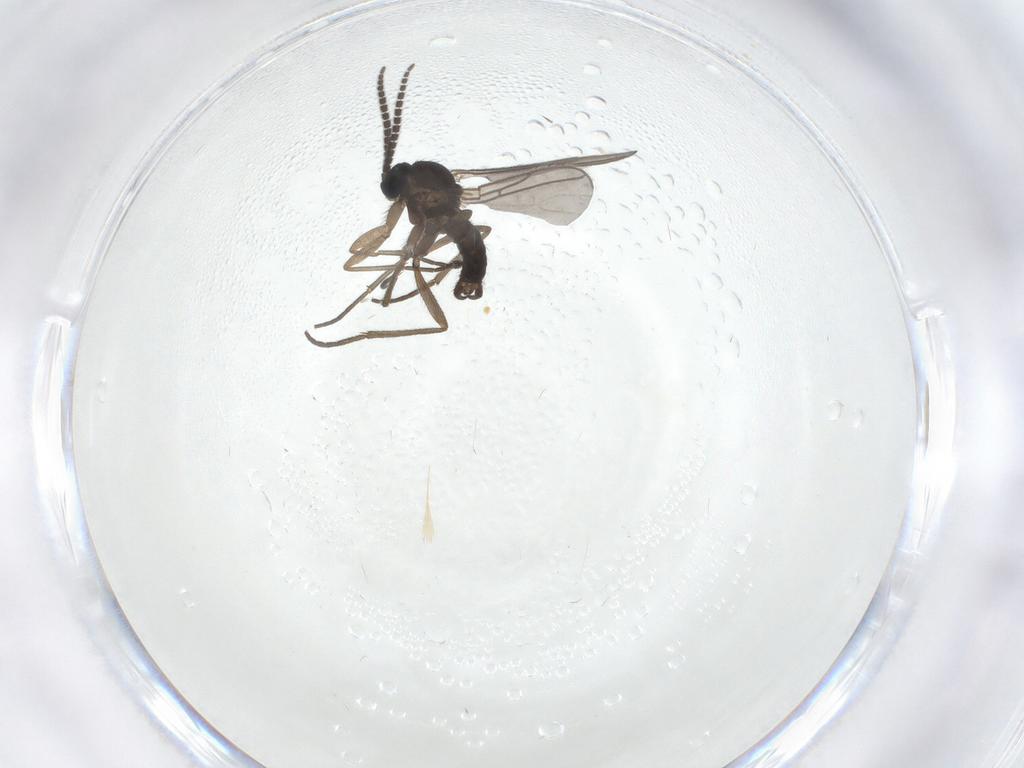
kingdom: Animalia
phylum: Arthropoda
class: Insecta
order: Diptera
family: Sciaridae
